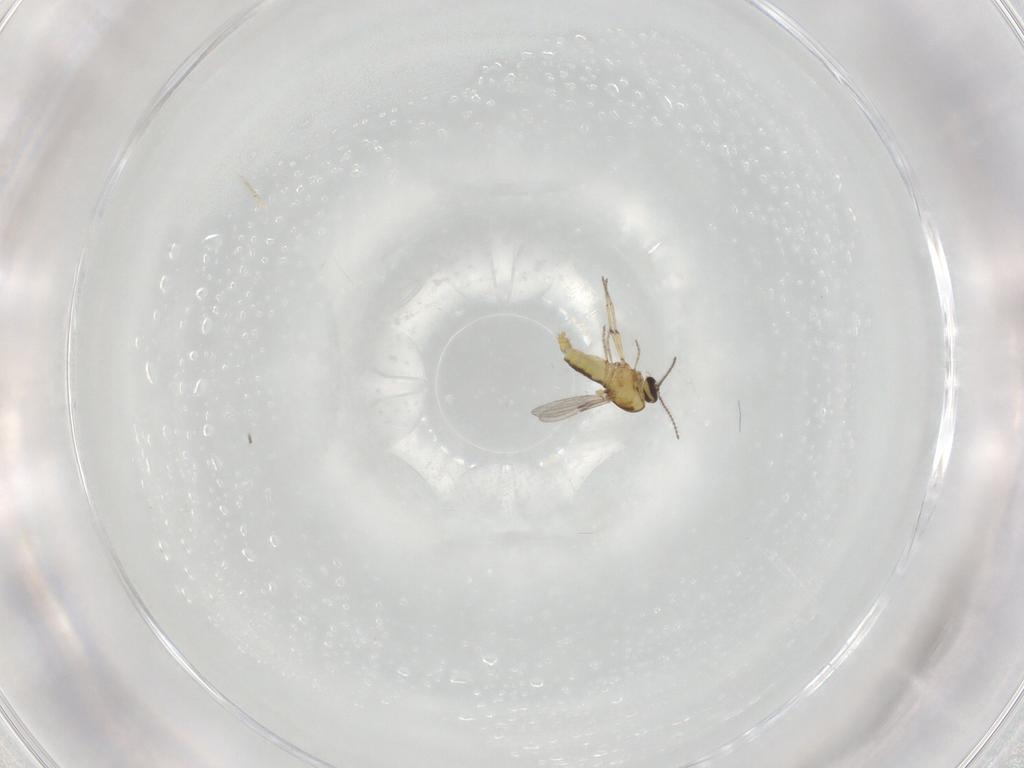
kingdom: Animalia
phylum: Arthropoda
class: Insecta
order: Diptera
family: Ceratopogonidae
